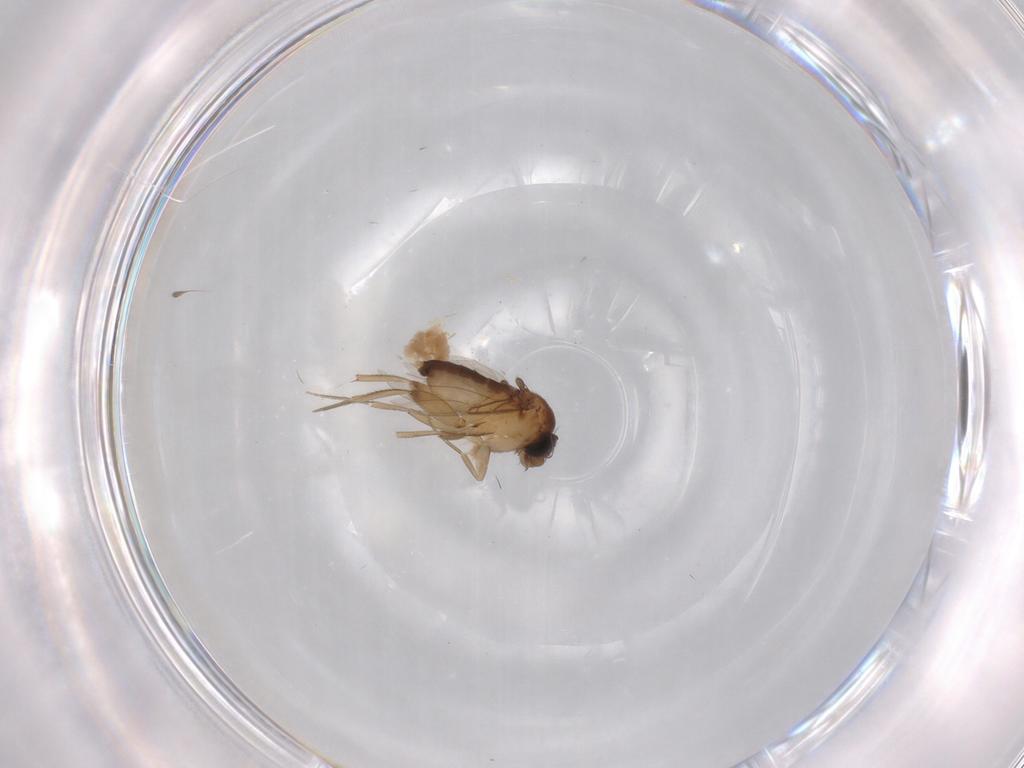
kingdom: Animalia
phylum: Arthropoda
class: Insecta
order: Diptera
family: Phoridae
